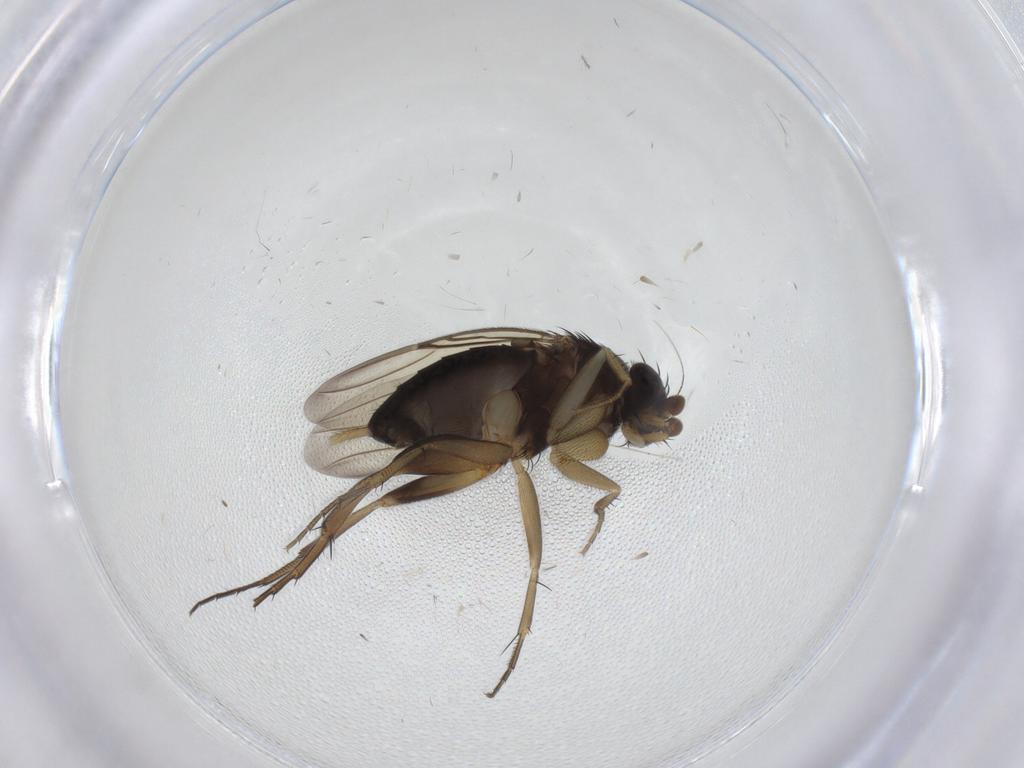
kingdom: Animalia
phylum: Arthropoda
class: Insecta
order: Diptera
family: Phoridae
